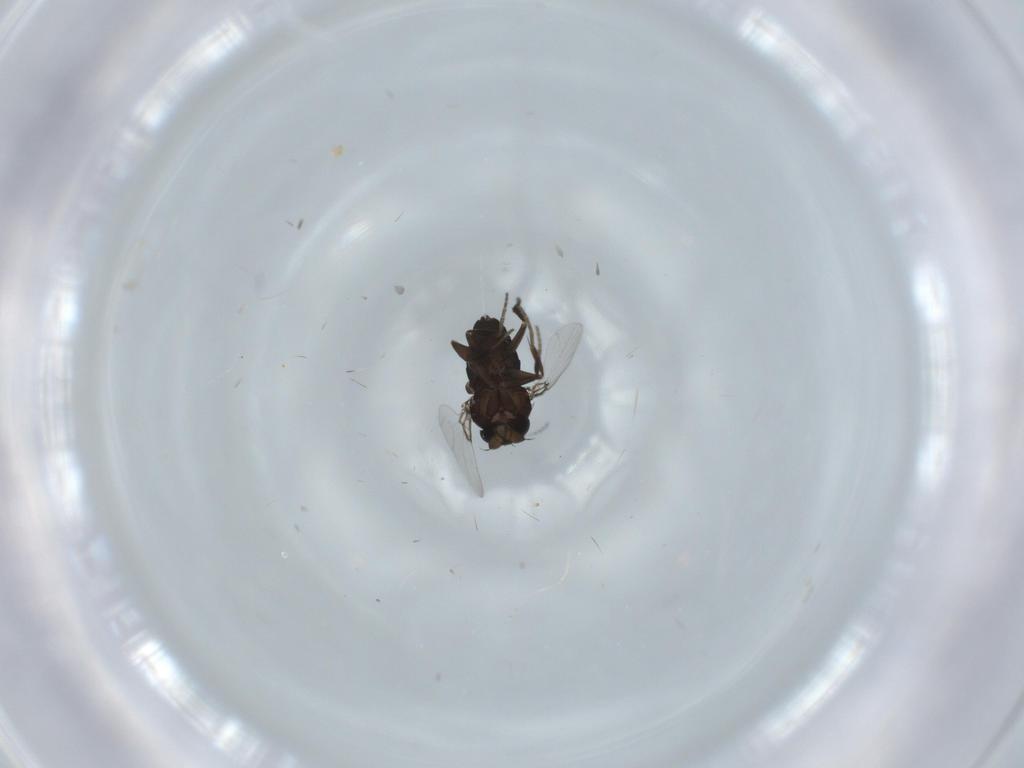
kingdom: Animalia
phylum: Arthropoda
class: Insecta
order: Diptera
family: Phoridae
